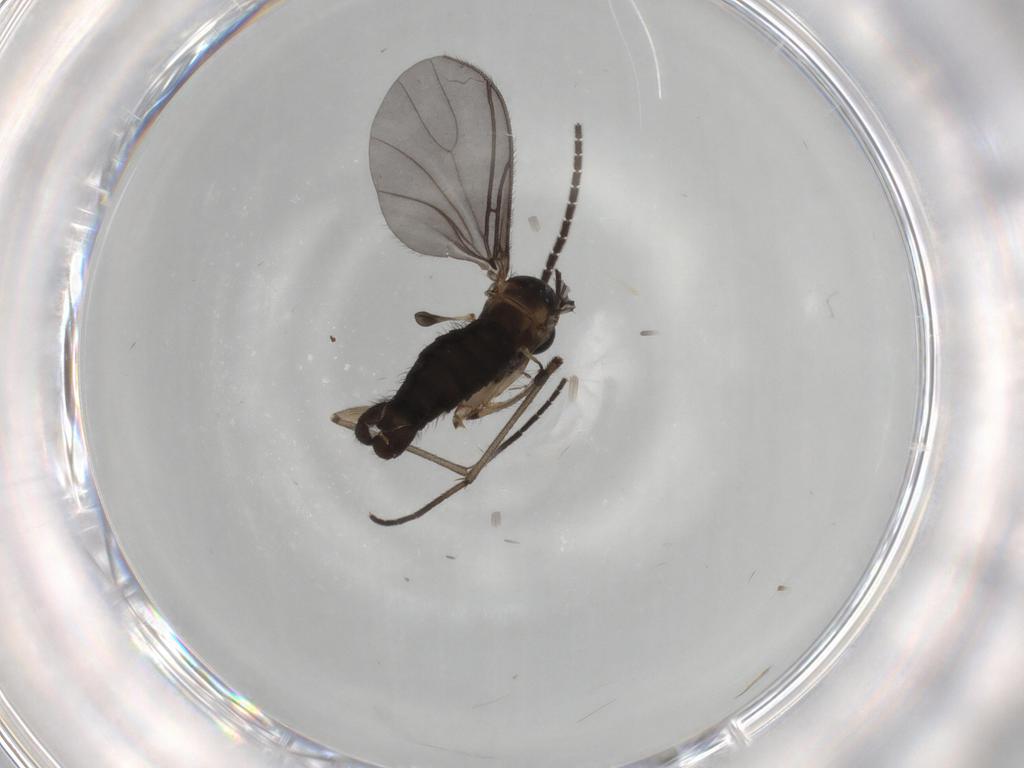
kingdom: Animalia
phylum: Arthropoda
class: Insecta
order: Diptera
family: Sciaridae
